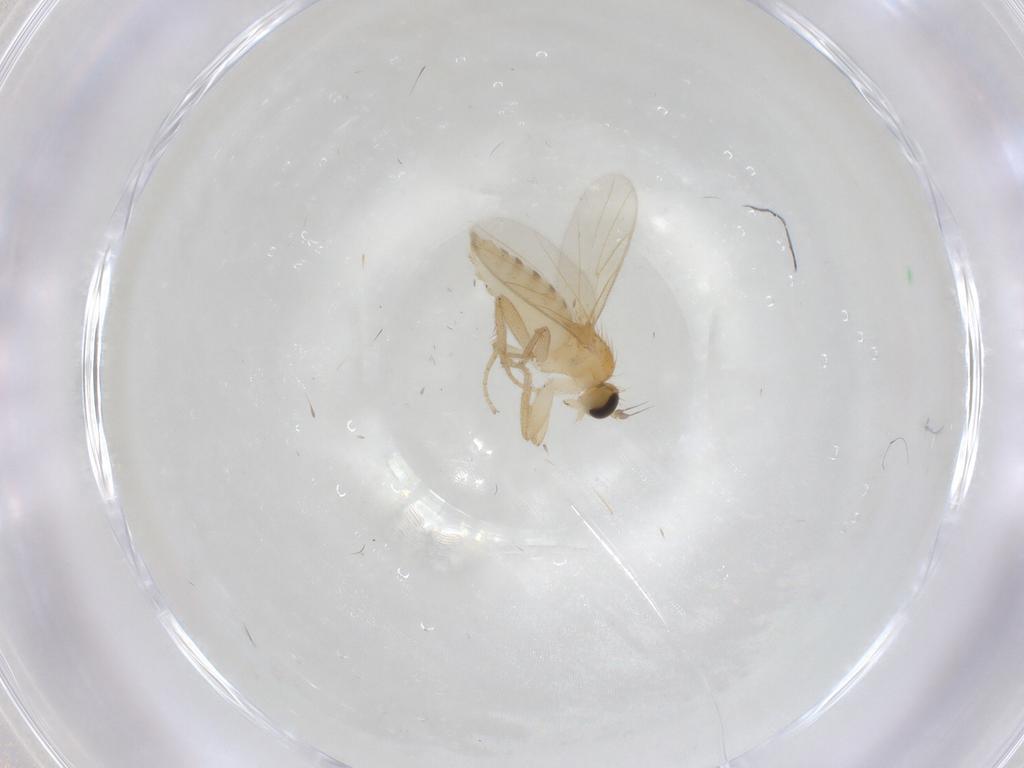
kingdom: Animalia
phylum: Arthropoda
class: Insecta
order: Diptera
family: Hybotidae
